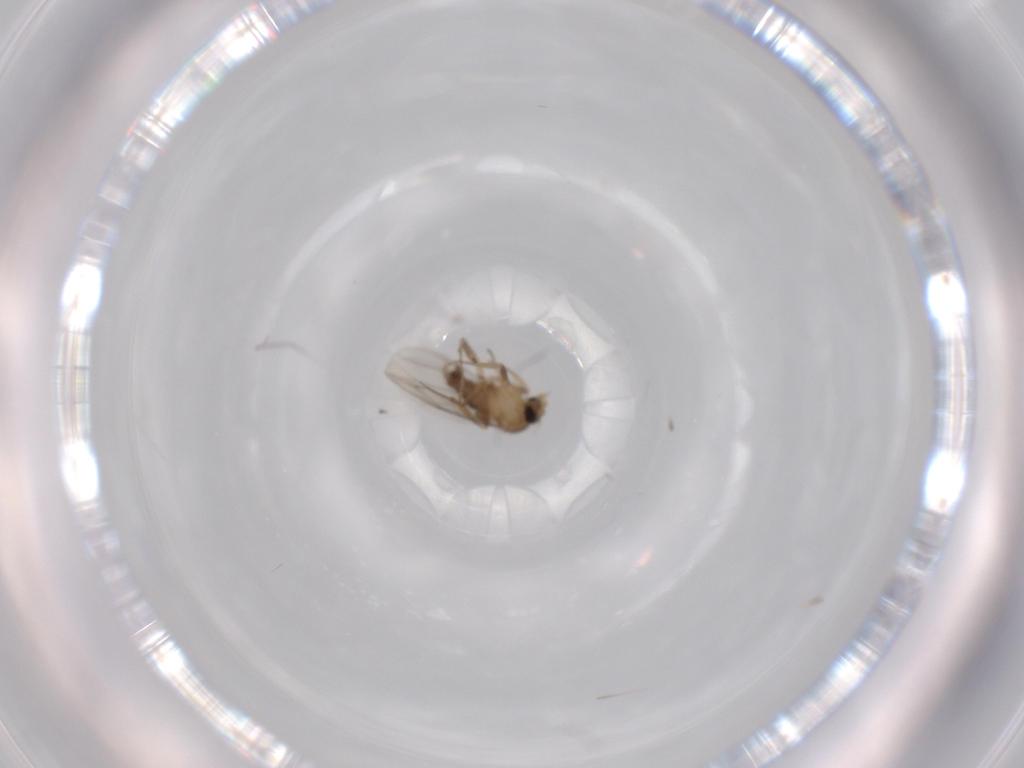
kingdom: Animalia
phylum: Arthropoda
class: Insecta
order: Diptera
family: Phoridae
